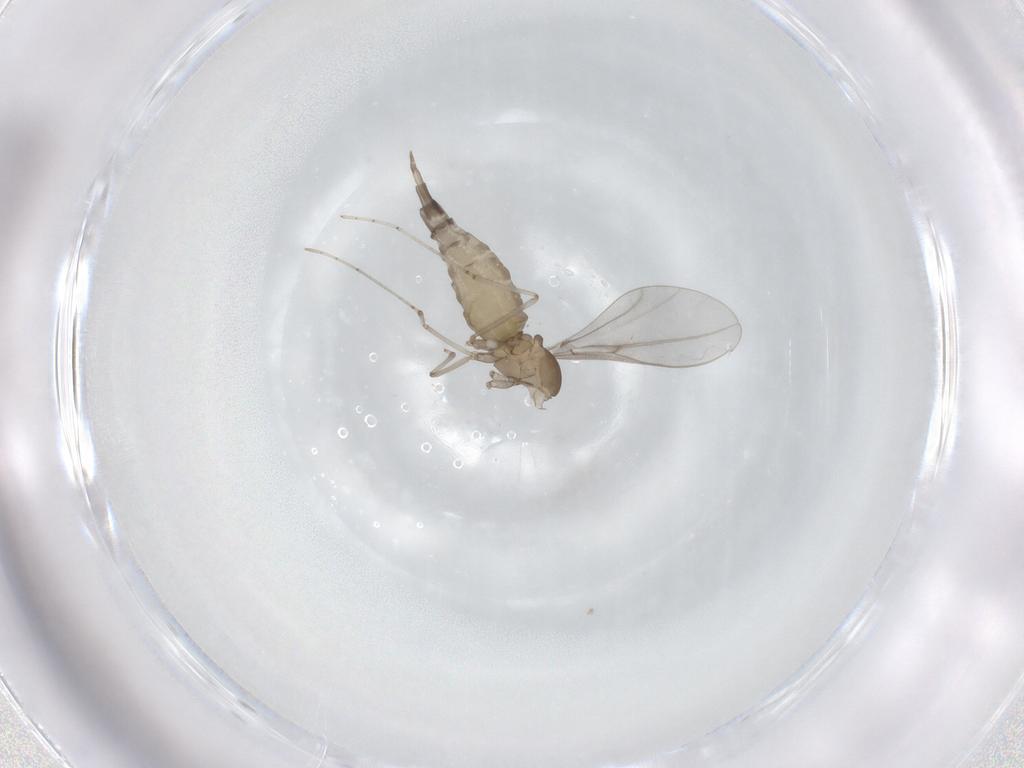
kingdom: Animalia
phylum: Arthropoda
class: Insecta
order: Diptera
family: Cecidomyiidae
